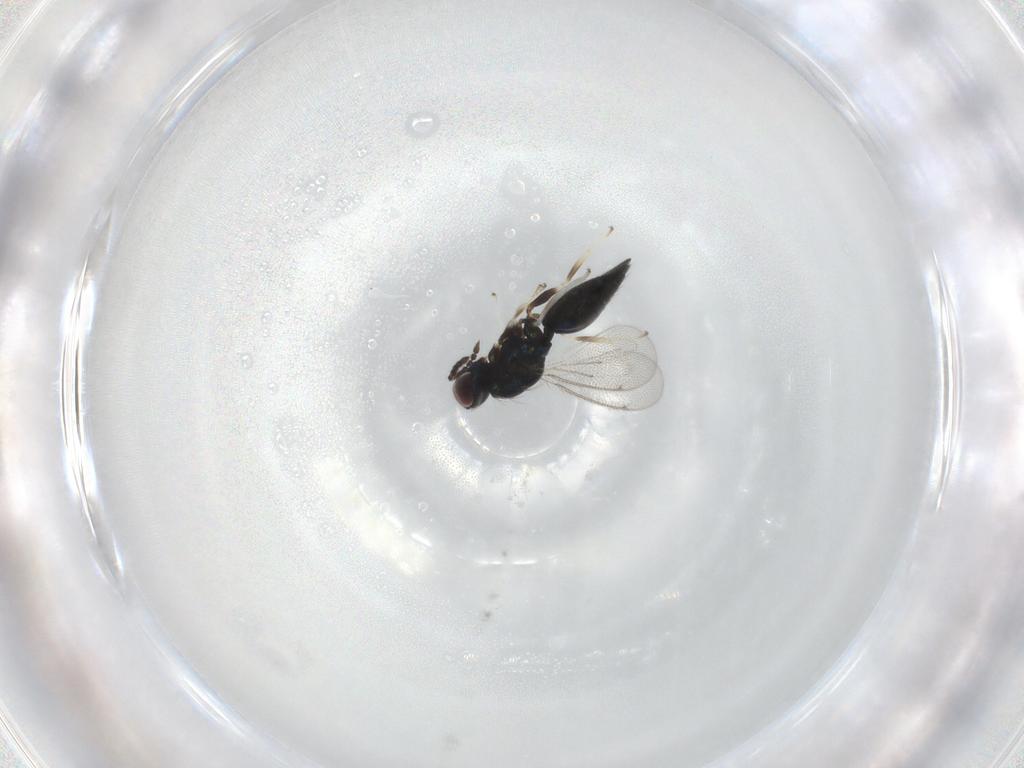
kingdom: Animalia
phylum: Arthropoda
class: Insecta
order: Hymenoptera
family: Eulophidae
